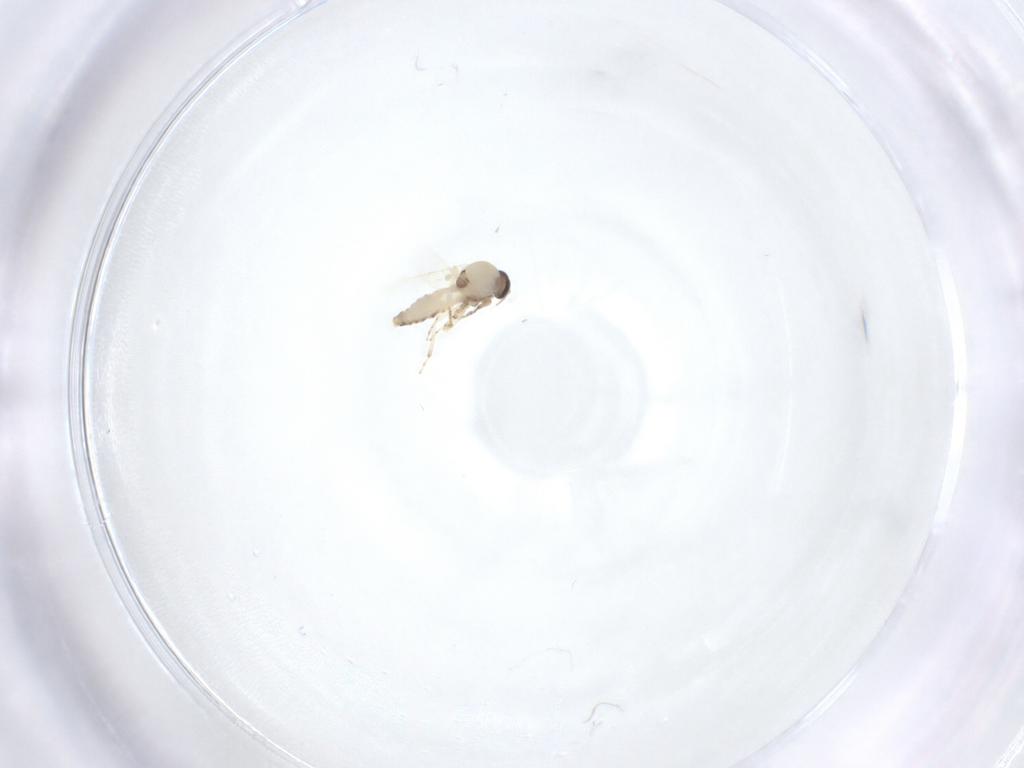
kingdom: Animalia
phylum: Arthropoda
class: Insecta
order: Diptera
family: Ceratopogonidae
